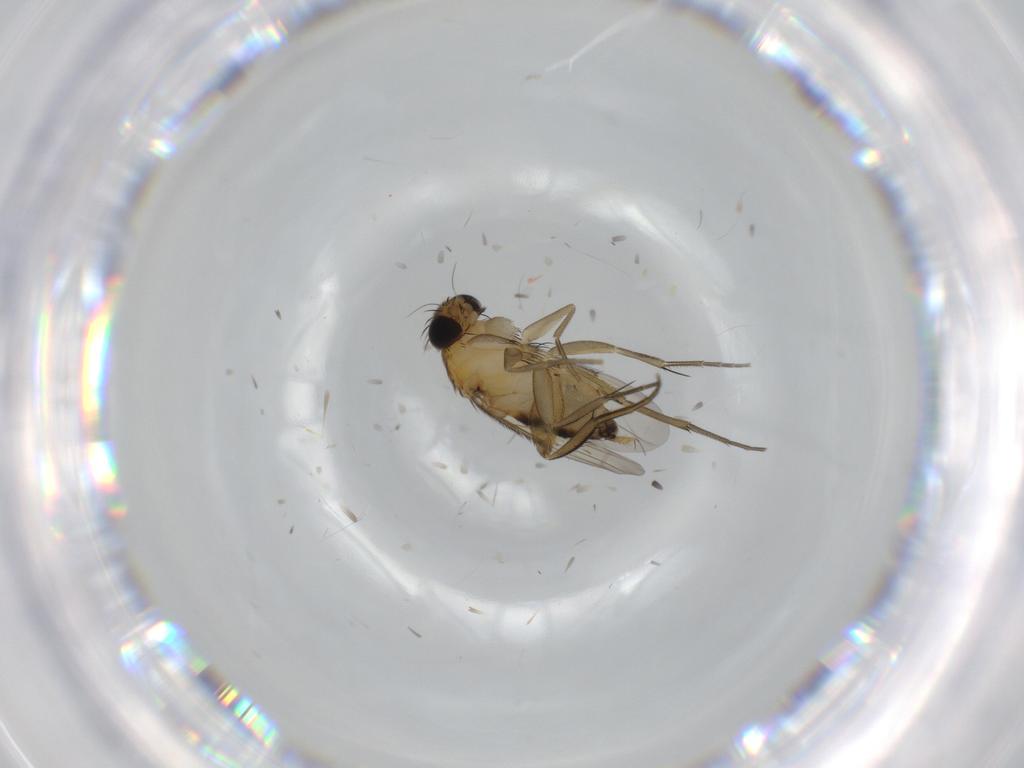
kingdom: Animalia
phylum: Arthropoda
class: Insecta
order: Diptera
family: Phoridae
